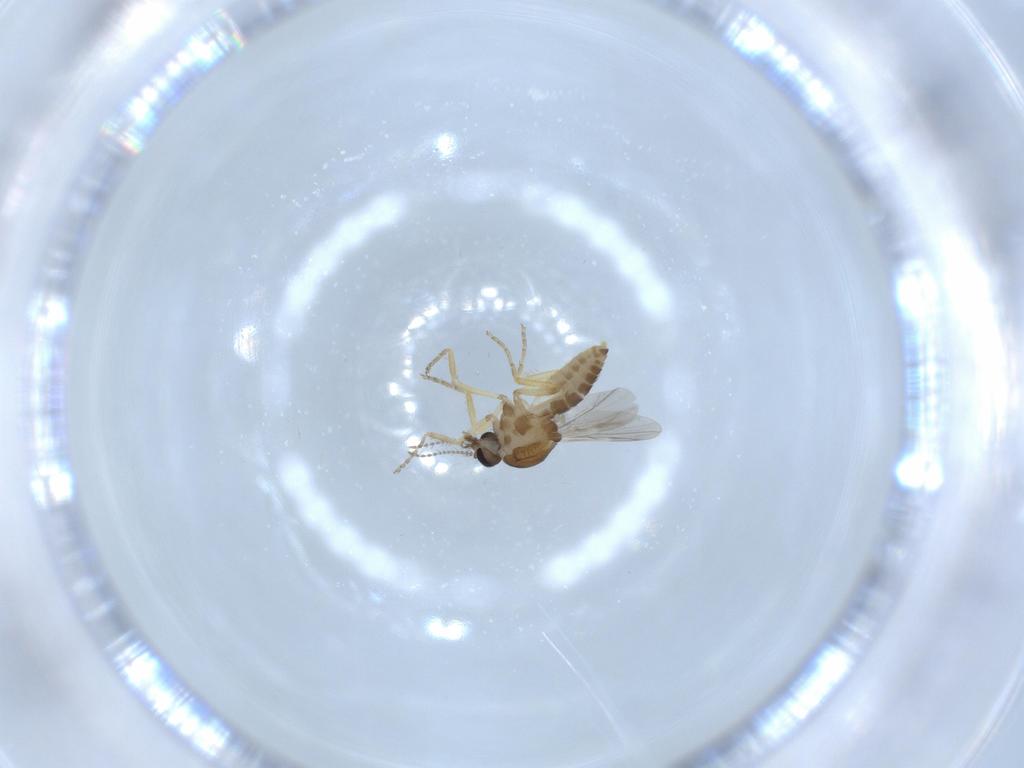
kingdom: Animalia
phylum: Arthropoda
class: Insecta
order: Diptera
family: Ceratopogonidae
